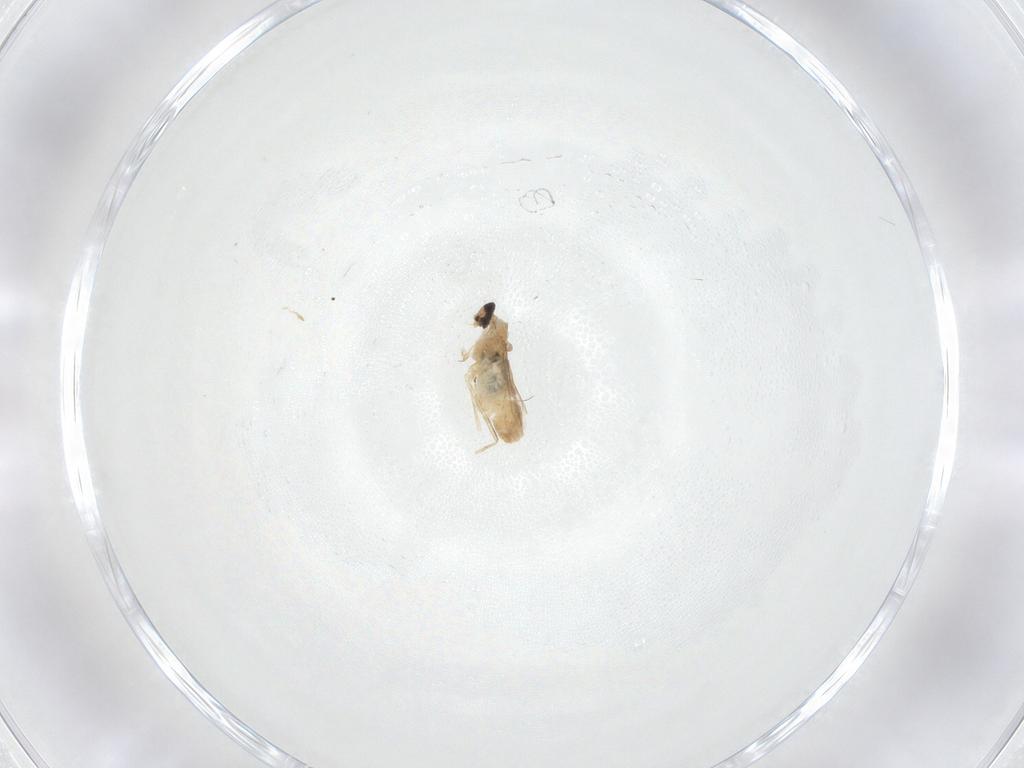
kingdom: Animalia
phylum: Arthropoda
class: Insecta
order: Diptera
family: Cecidomyiidae
